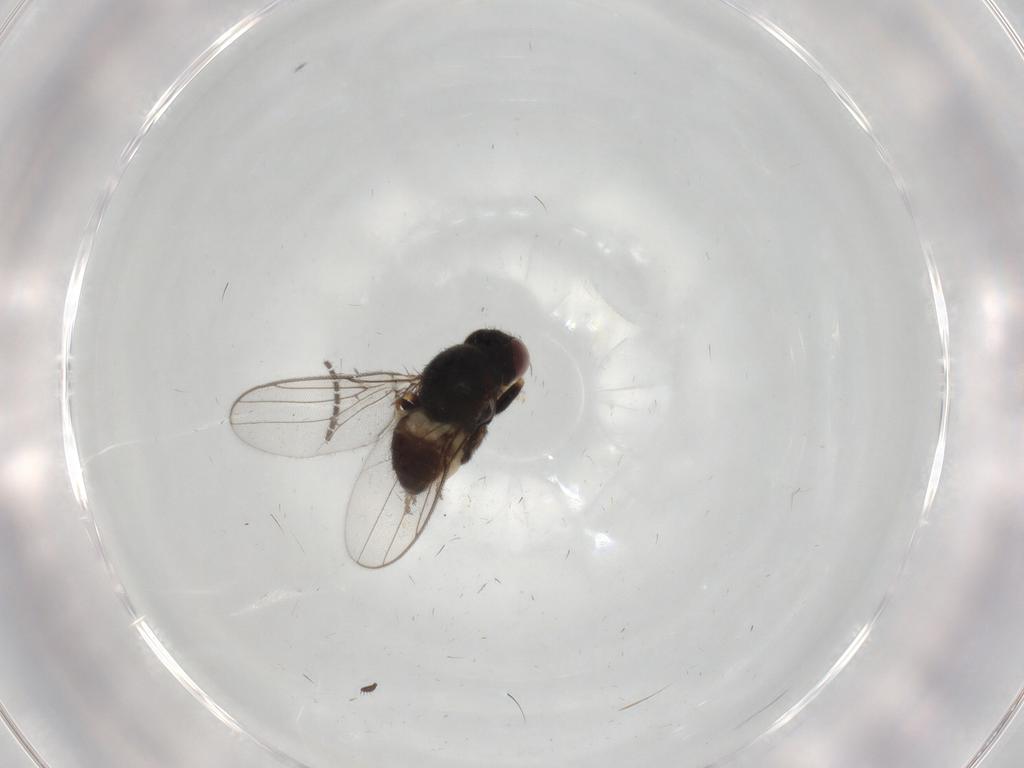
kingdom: Animalia
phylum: Arthropoda
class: Insecta
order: Diptera
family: Chloropidae
